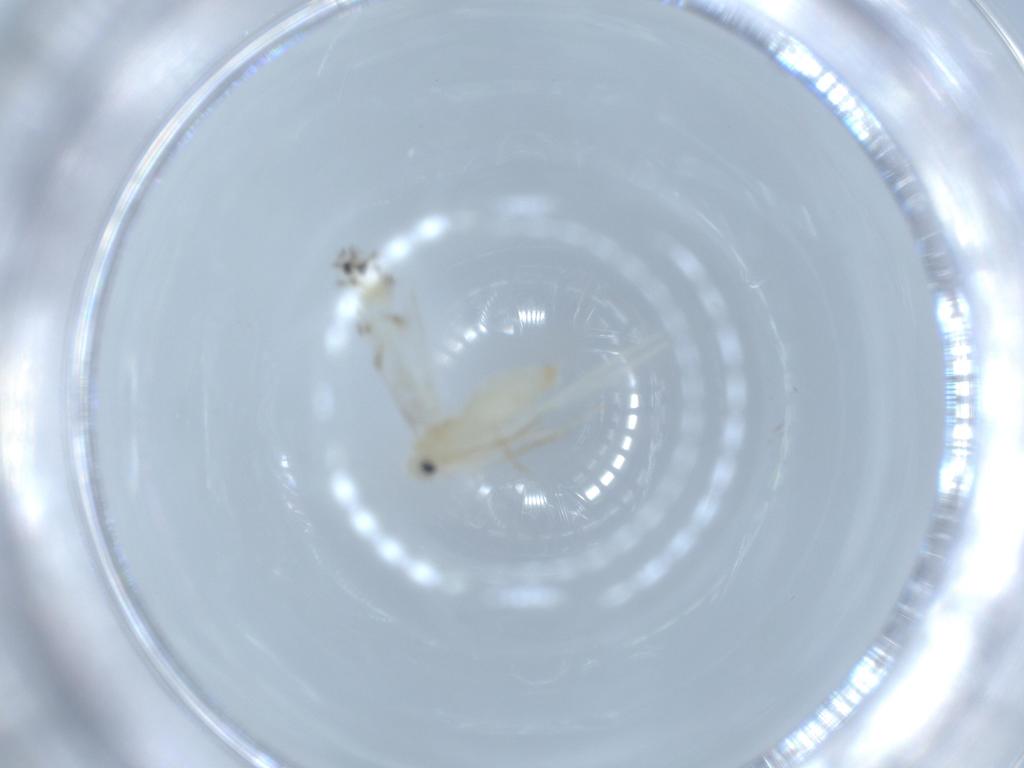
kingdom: Animalia
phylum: Arthropoda
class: Insecta
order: Lepidoptera
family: Gracillariidae
